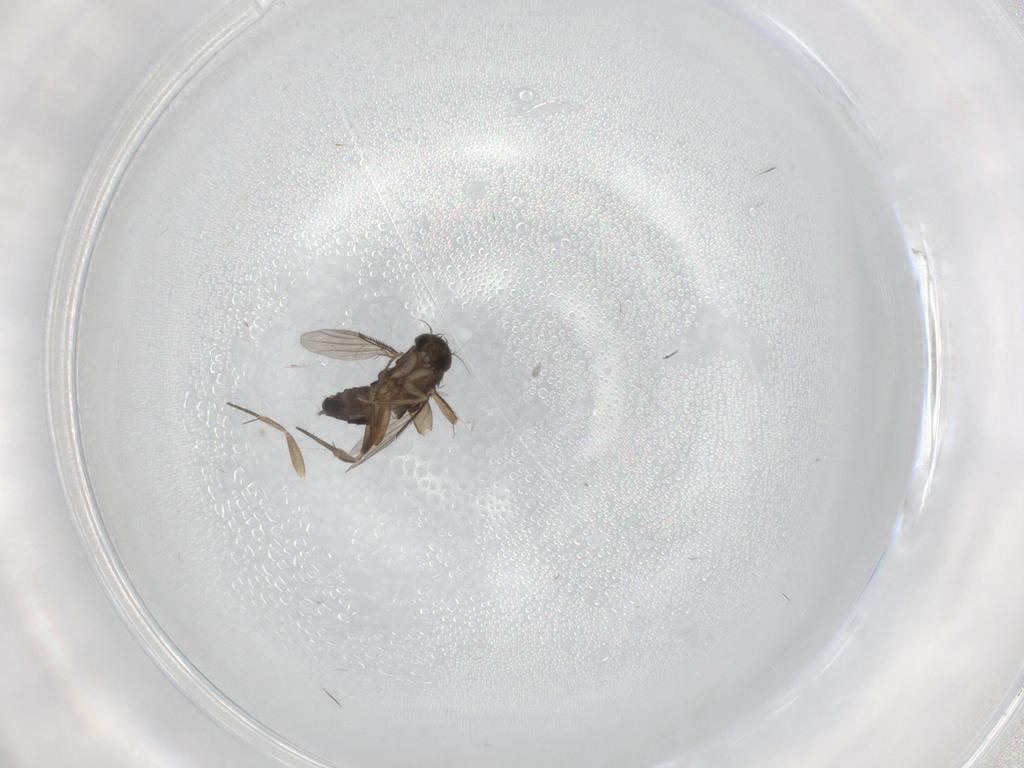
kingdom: Animalia
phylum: Arthropoda
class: Insecta
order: Diptera
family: Phoridae
